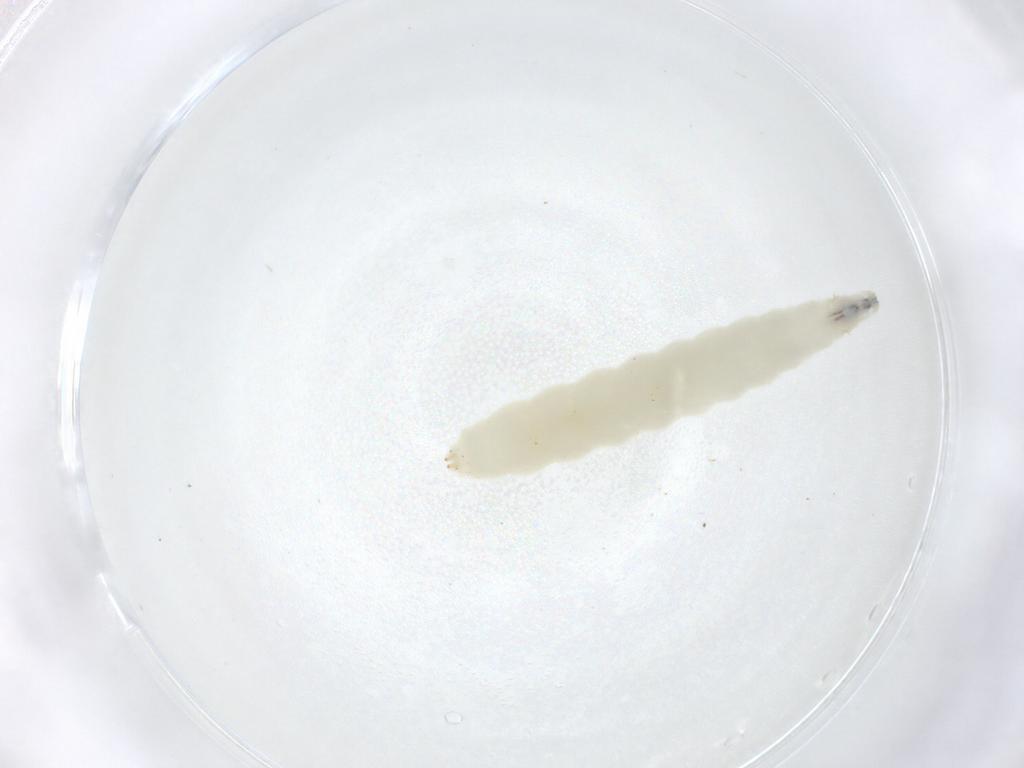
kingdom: Animalia
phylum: Arthropoda
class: Insecta
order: Diptera
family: Piophilidae
